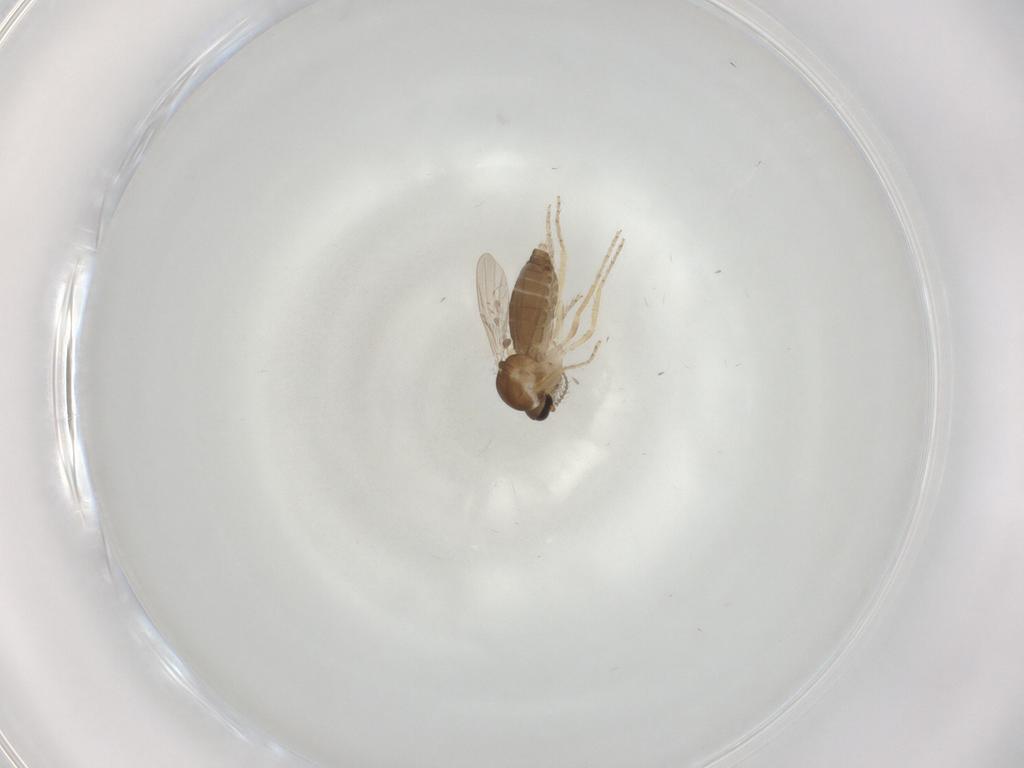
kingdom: Animalia
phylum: Arthropoda
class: Insecta
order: Diptera
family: Ceratopogonidae
